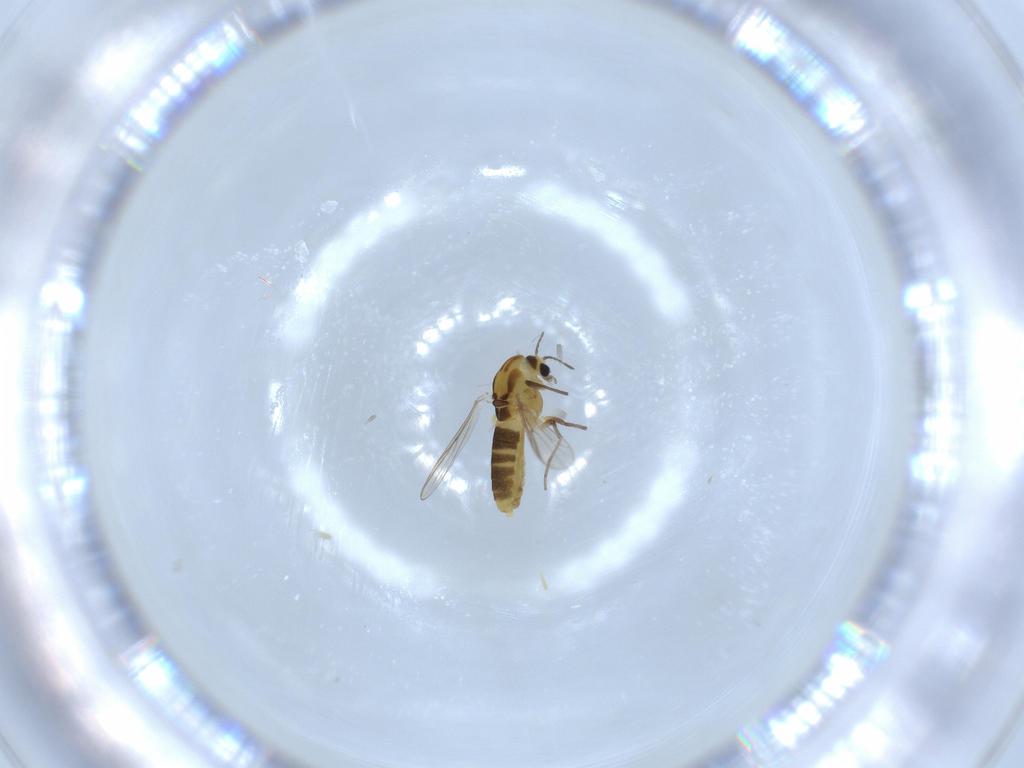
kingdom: Animalia
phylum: Arthropoda
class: Insecta
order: Diptera
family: Chironomidae
